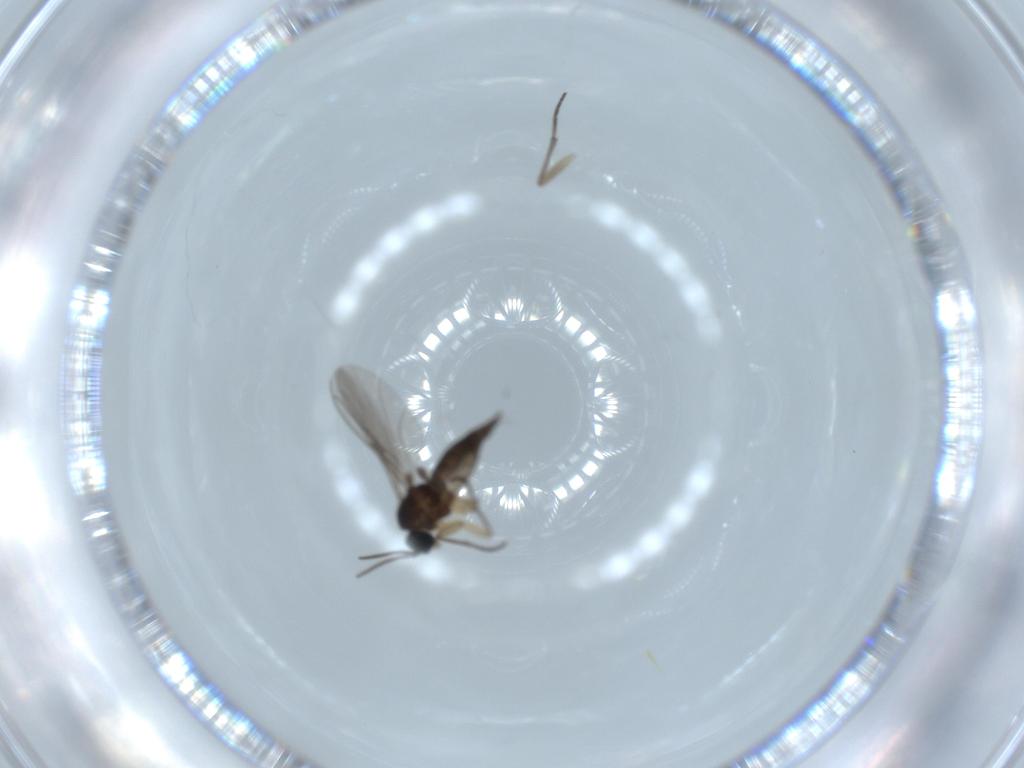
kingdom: Animalia
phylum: Arthropoda
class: Insecta
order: Diptera
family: Sciaridae
